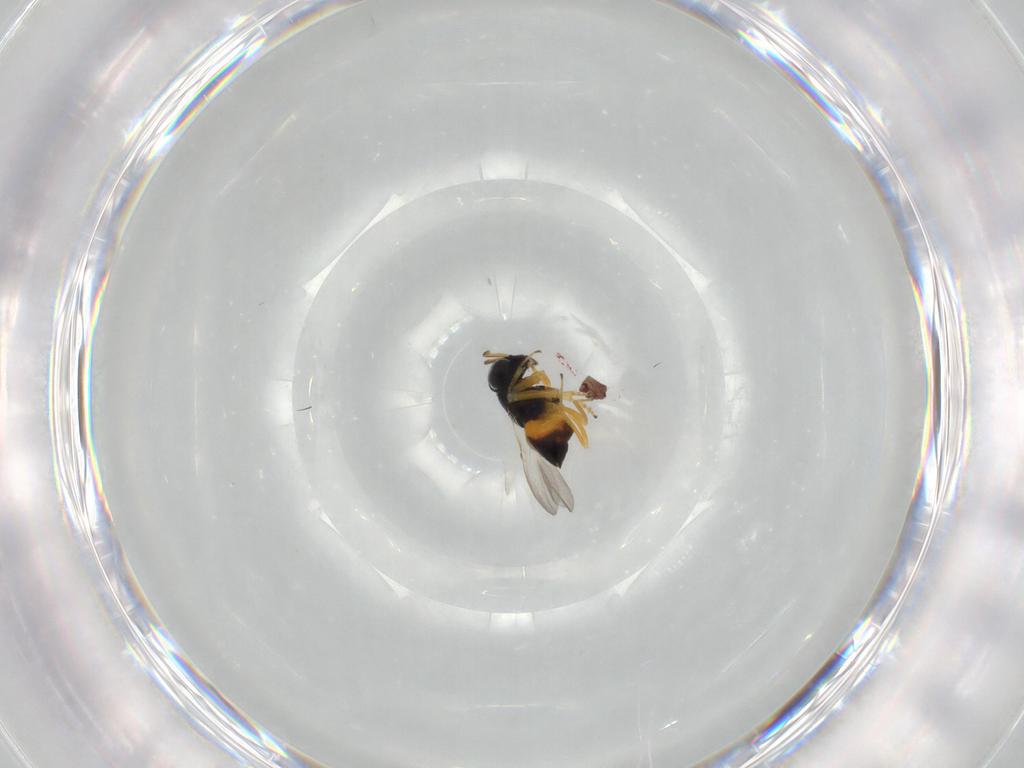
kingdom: Animalia
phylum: Arthropoda
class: Insecta
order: Hymenoptera
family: Encyrtidae
